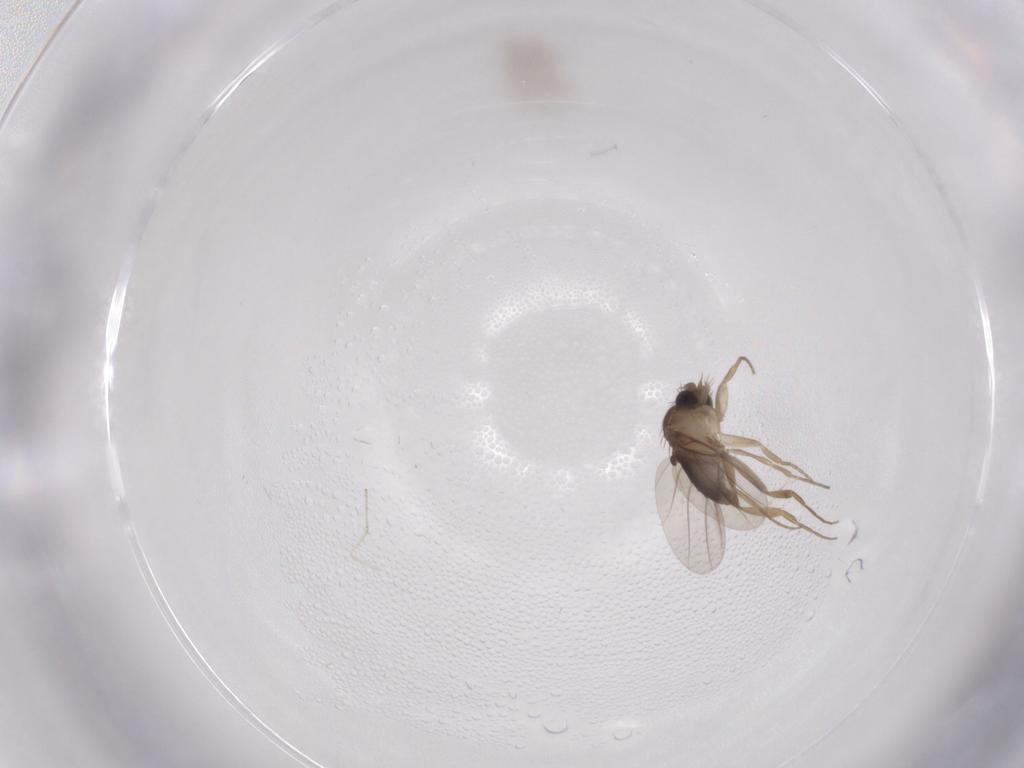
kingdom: Animalia
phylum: Arthropoda
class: Insecta
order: Diptera
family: Phoridae
